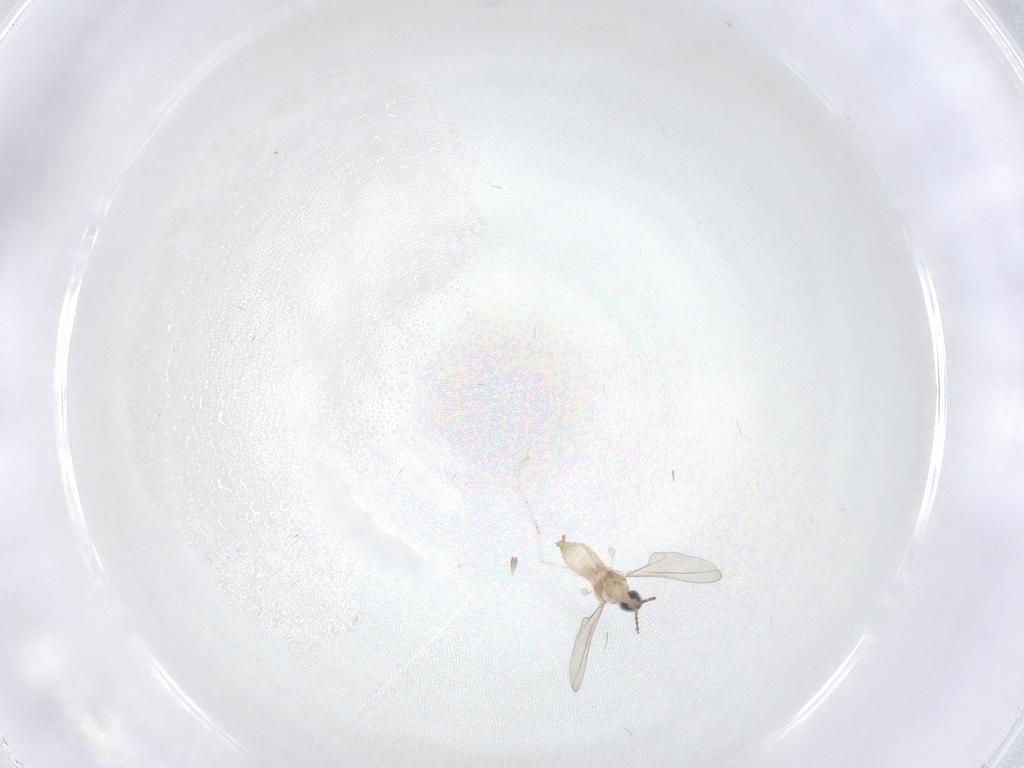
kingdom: Animalia
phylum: Arthropoda
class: Insecta
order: Diptera
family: Cecidomyiidae
